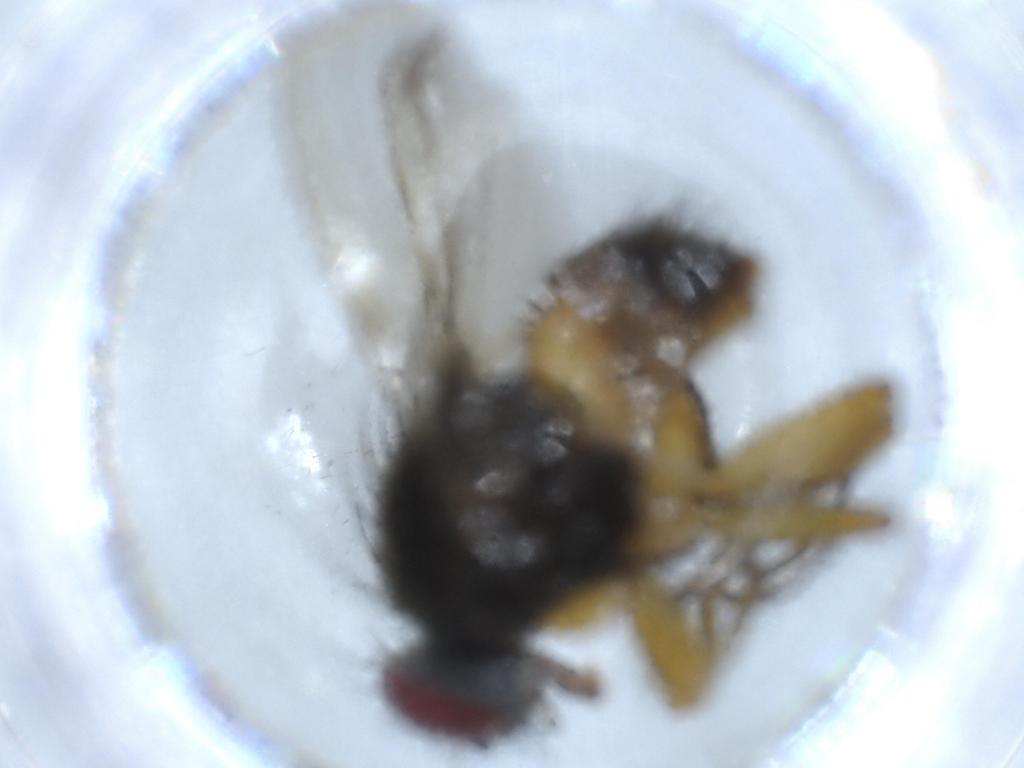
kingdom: Animalia
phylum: Arthropoda
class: Insecta
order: Diptera
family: Muscidae
